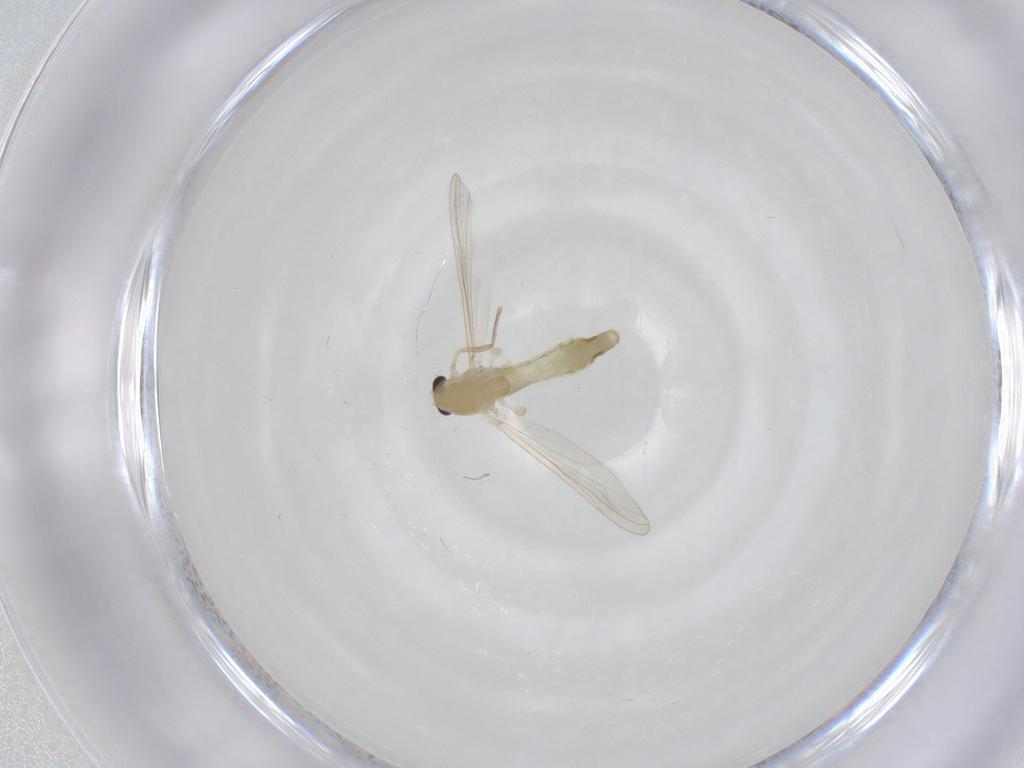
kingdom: Animalia
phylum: Arthropoda
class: Insecta
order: Diptera
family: Chironomidae
